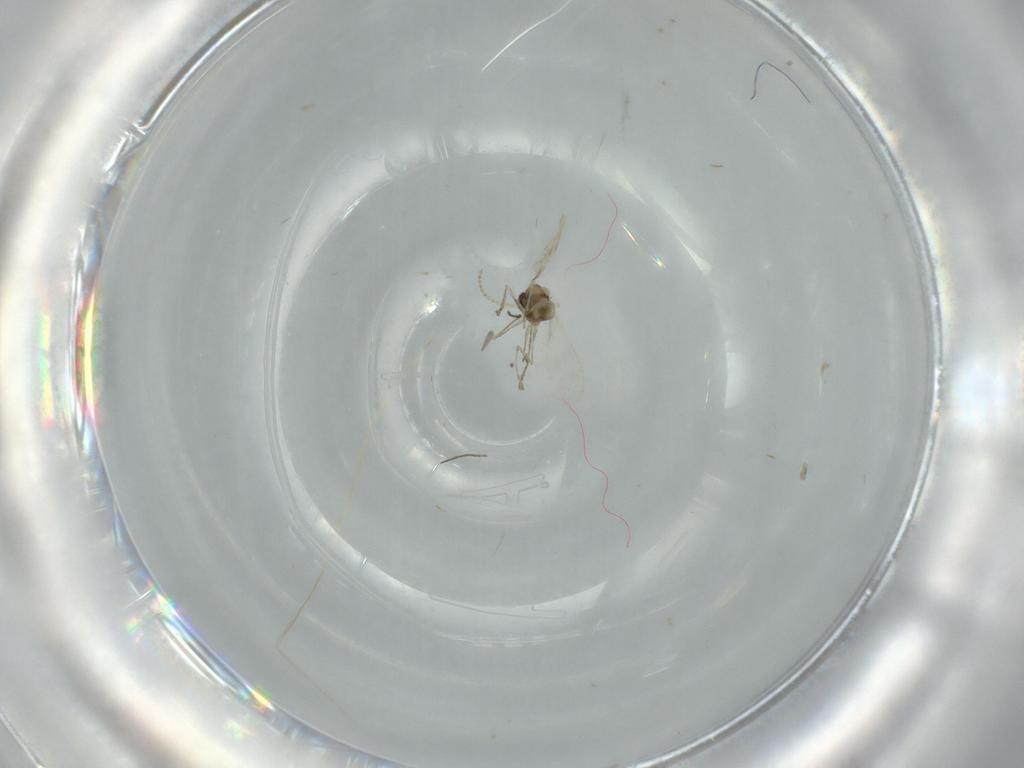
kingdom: Animalia
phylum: Arthropoda
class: Insecta
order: Diptera
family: Cecidomyiidae
